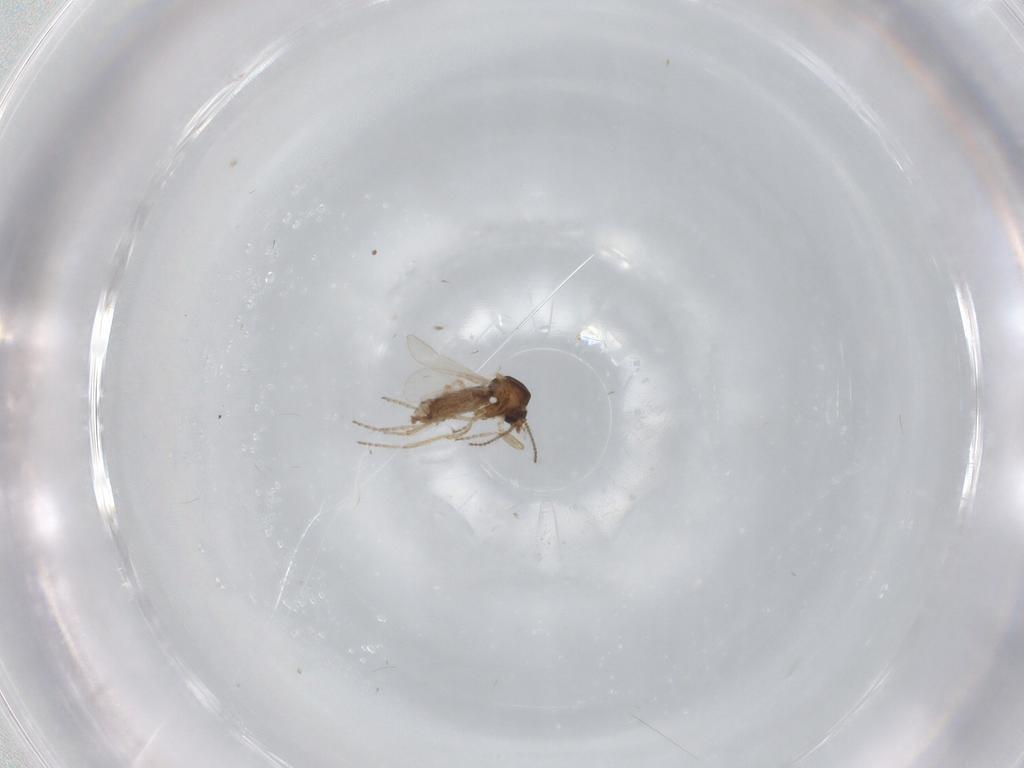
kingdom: Animalia
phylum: Arthropoda
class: Insecta
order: Diptera
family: Ceratopogonidae
